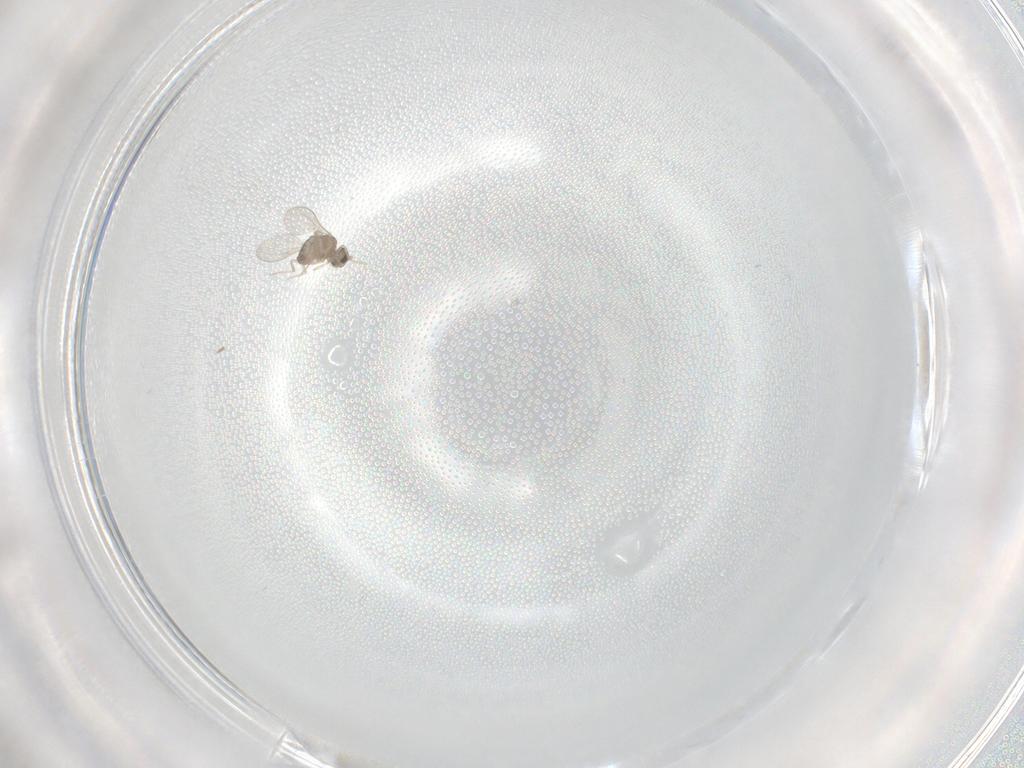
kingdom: Animalia
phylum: Arthropoda
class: Insecta
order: Diptera
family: Cecidomyiidae
